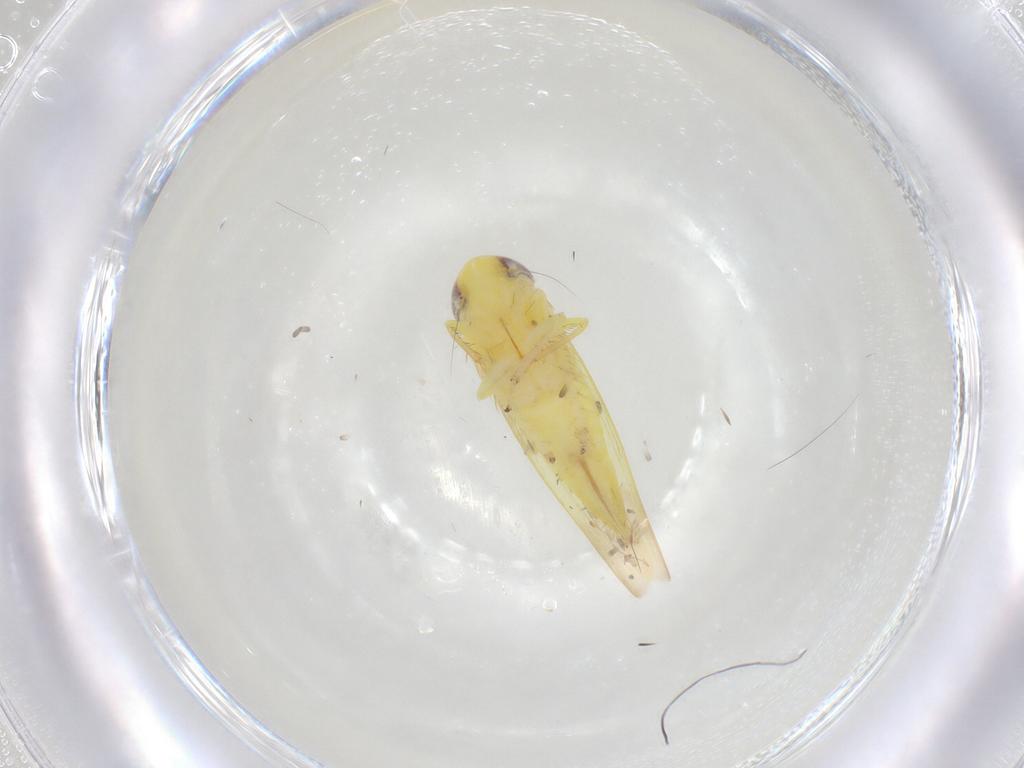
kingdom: Animalia
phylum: Arthropoda
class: Insecta
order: Hemiptera
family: Cicadellidae
